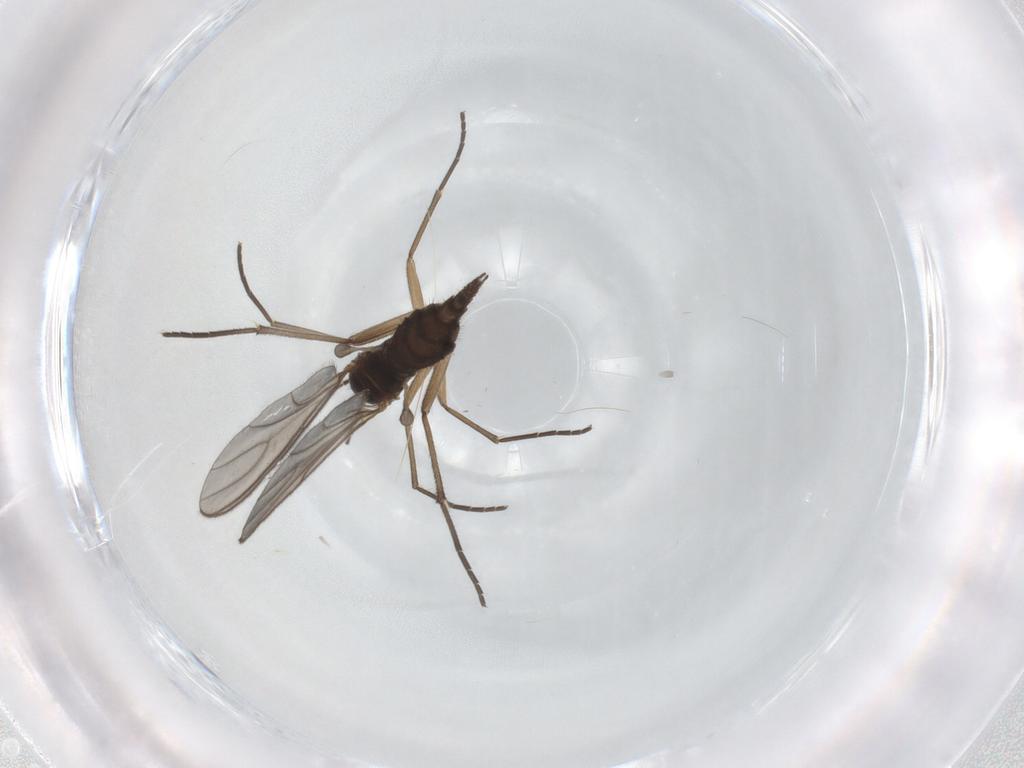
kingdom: Animalia
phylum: Arthropoda
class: Insecta
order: Diptera
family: Sciaridae
